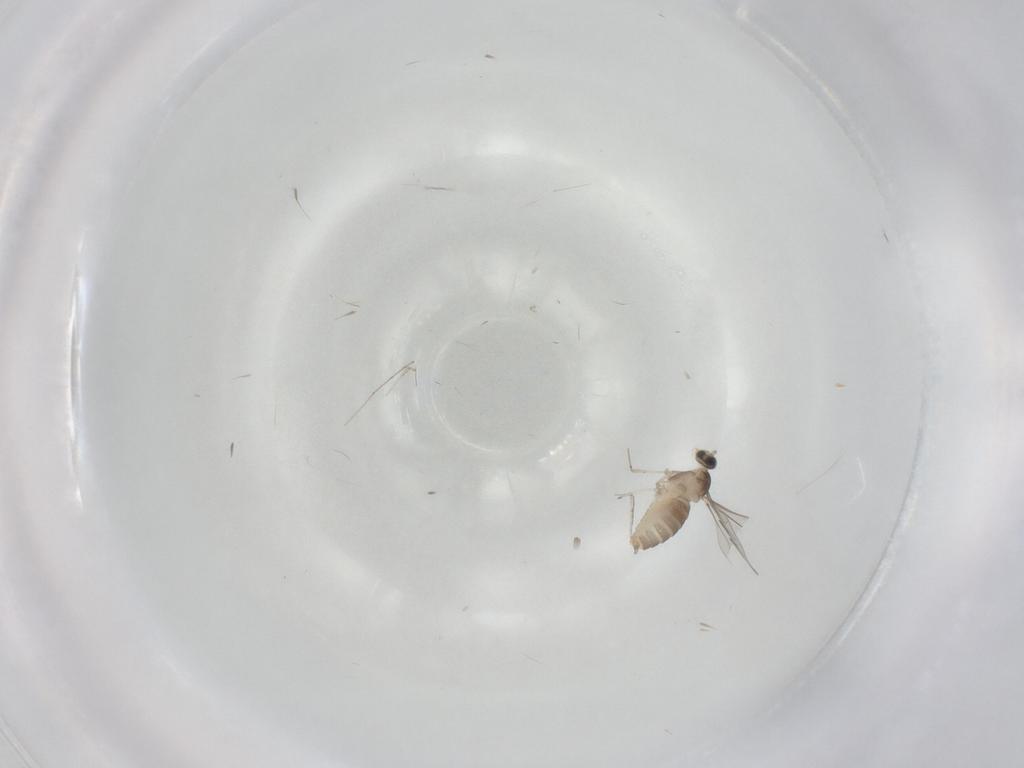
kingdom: Animalia
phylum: Arthropoda
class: Insecta
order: Diptera
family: Cecidomyiidae
